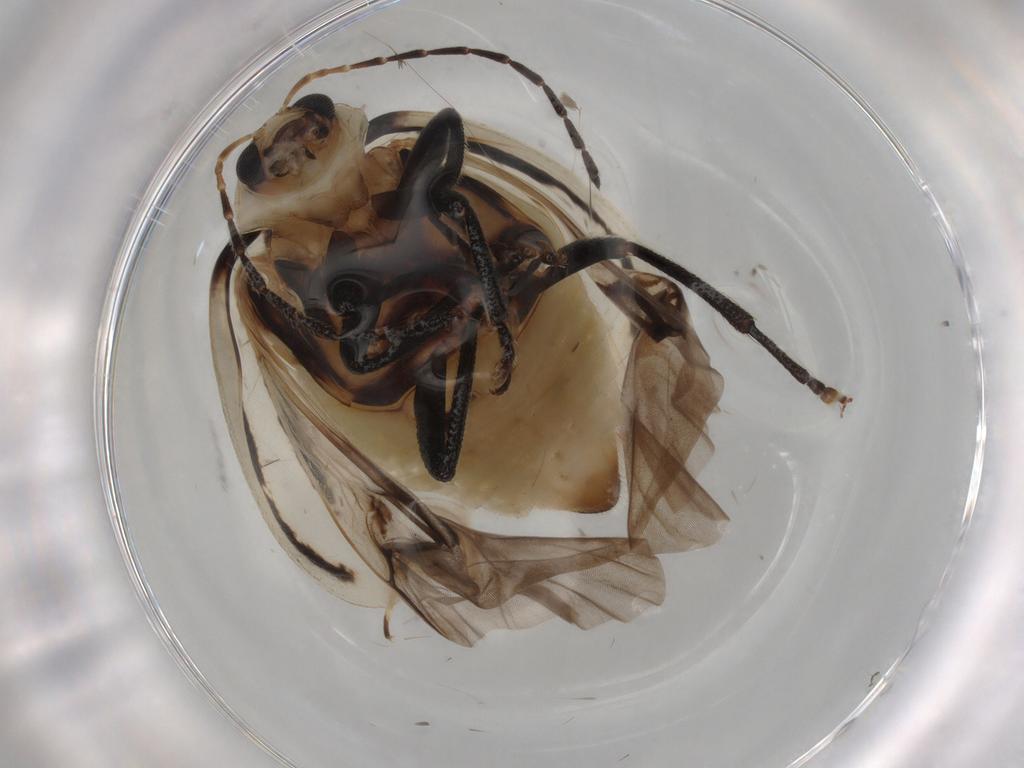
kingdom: Animalia
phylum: Arthropoda
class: Insecta
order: Coleoptera
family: Chrysomelidae
